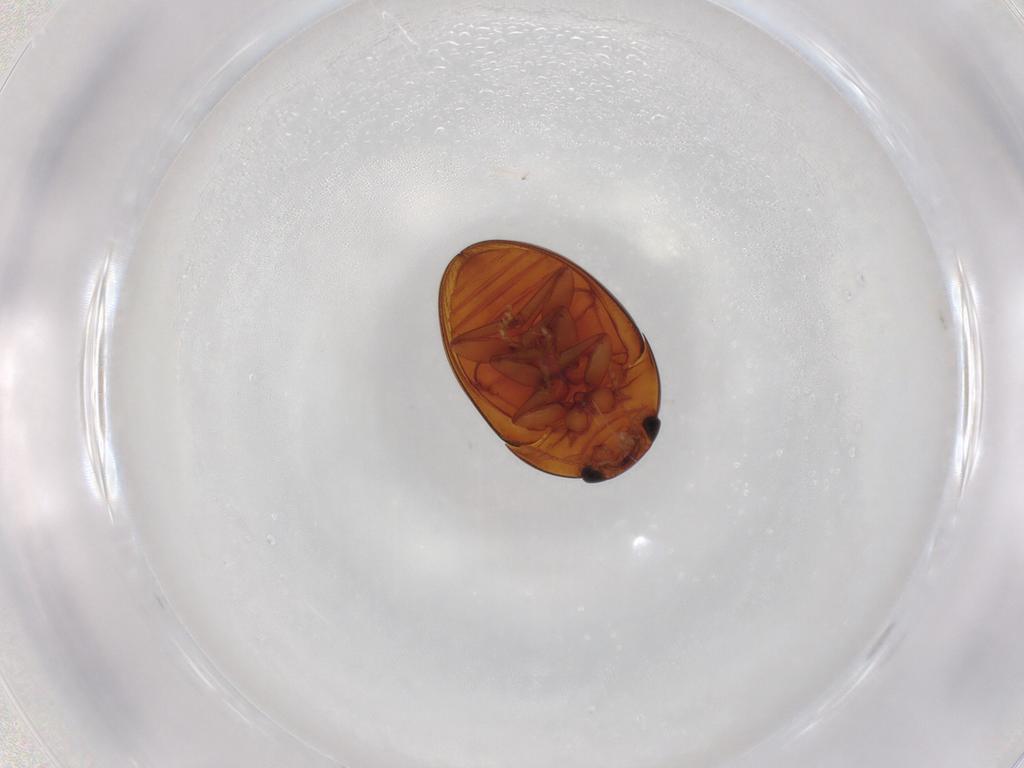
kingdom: Animalia
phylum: Arthropoda
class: Insecta
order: Coleoptera
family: Phalacridae
